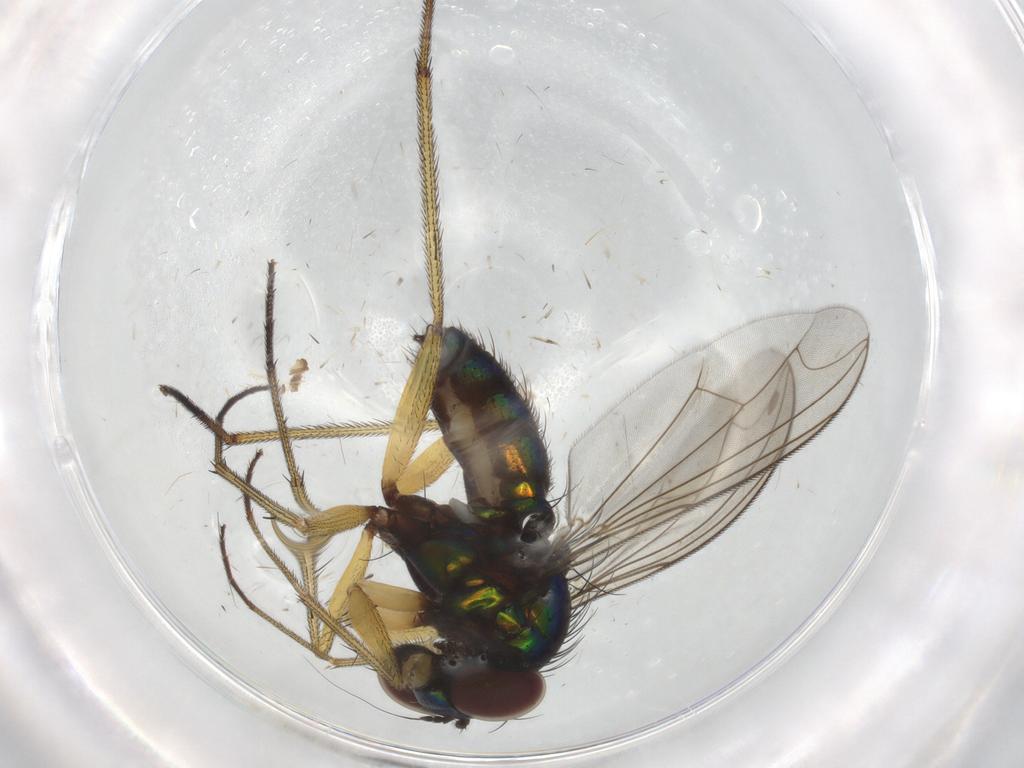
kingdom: Animalia
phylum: Arthropoda
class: Insecta
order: Diptera
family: Dolichopodidae
